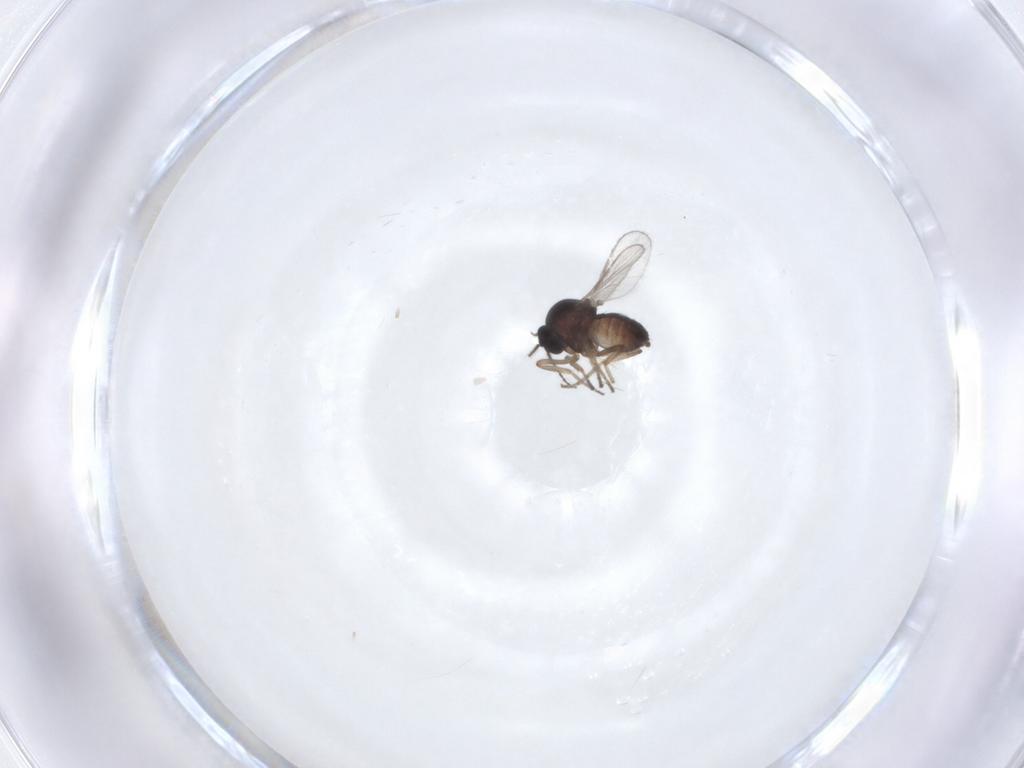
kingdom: Animalia
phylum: Arthropoda
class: Insecta
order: Diptera
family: Ceratopogonidae
